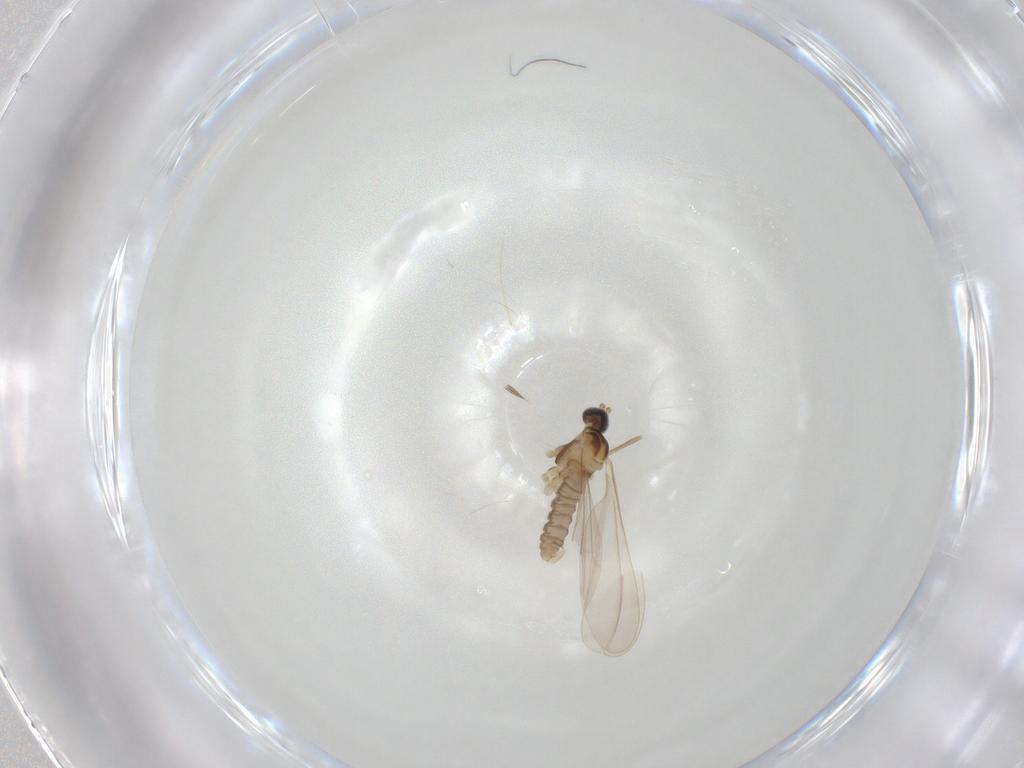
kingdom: Animalia
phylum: Arthropoda
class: Insecta
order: Diptera
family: Cecidomyiidae
